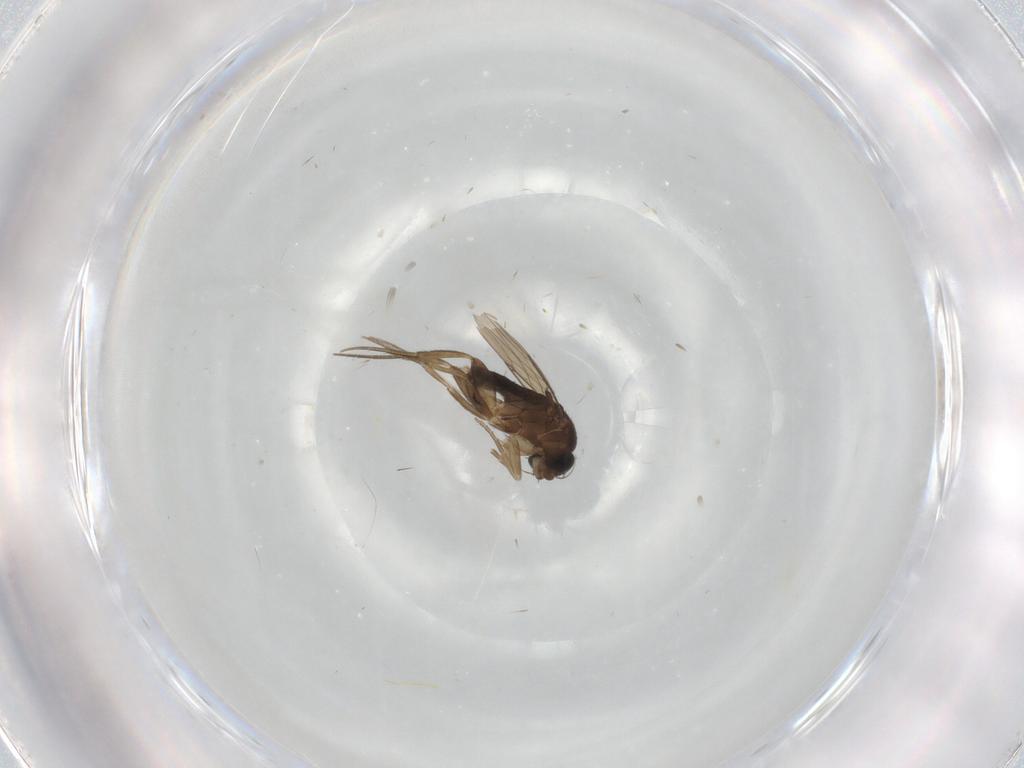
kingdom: Animalia
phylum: Arthropoda
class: Insecta
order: Diptera
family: Phoridae
